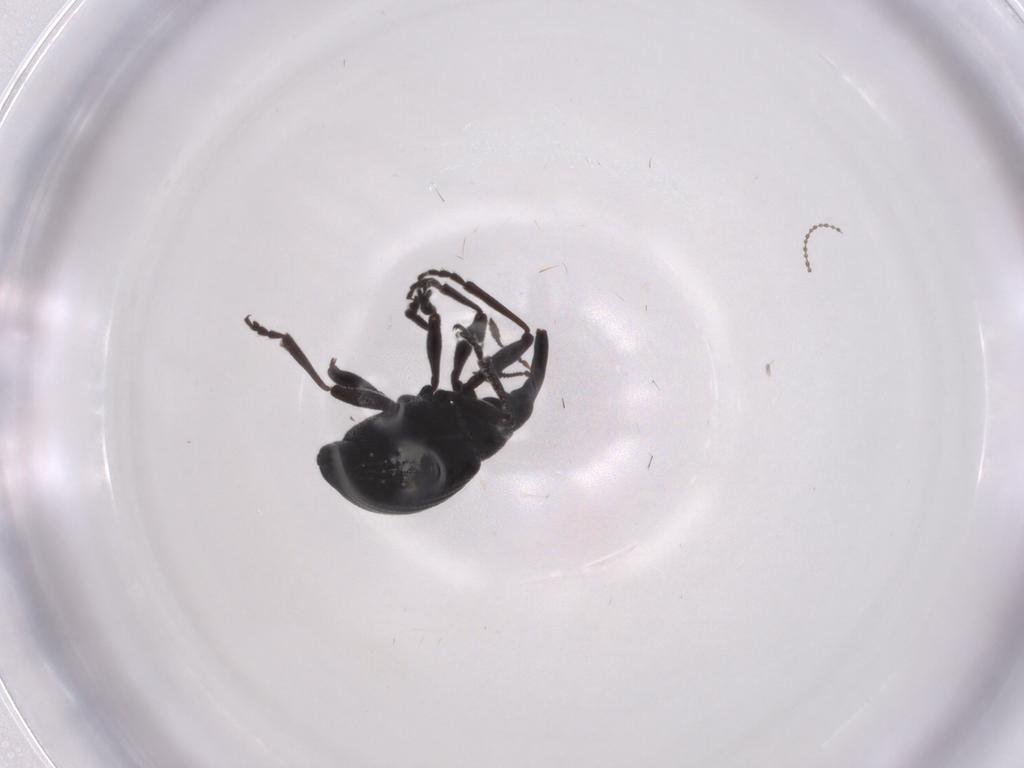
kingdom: Animalia
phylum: Arthropoda
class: Insecta
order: Coleoptera
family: Brentidae
